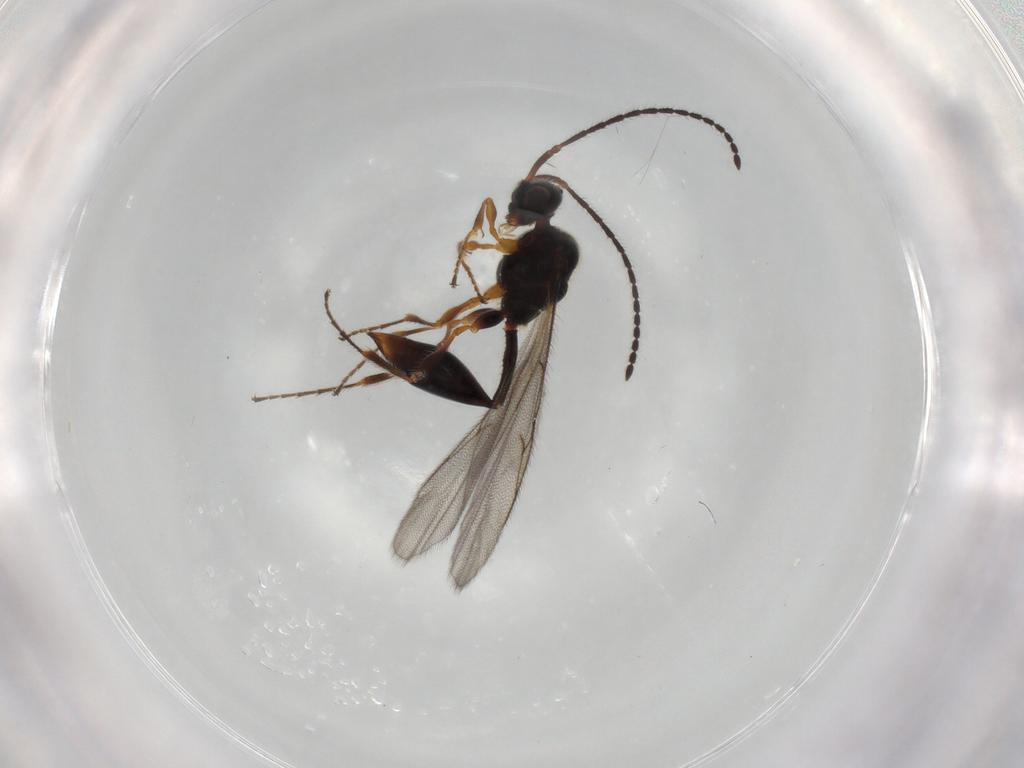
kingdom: Animalia
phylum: Arthropoda
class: Insecta
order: Hymenoptera
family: Diapriidae
